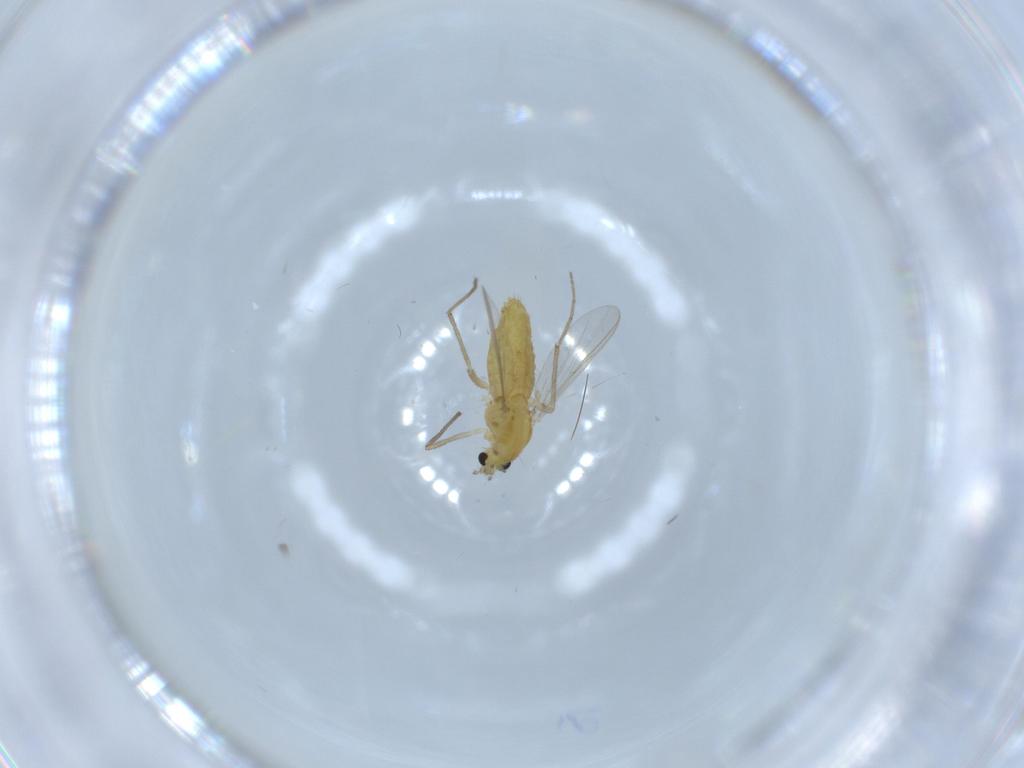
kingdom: Animalia
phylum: Arthropoda
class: Insecta
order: Diptera
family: Chironomidae
